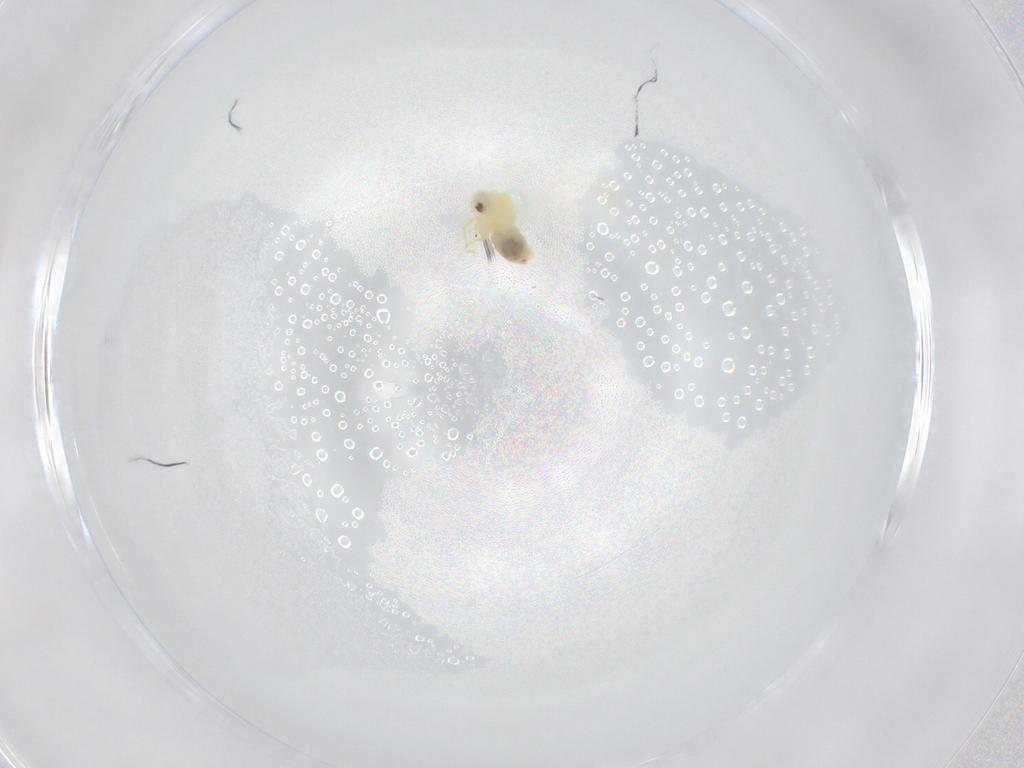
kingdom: Animalia
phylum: Arthropoda
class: Insecta
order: Hemiptera
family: Aleyrodidae
